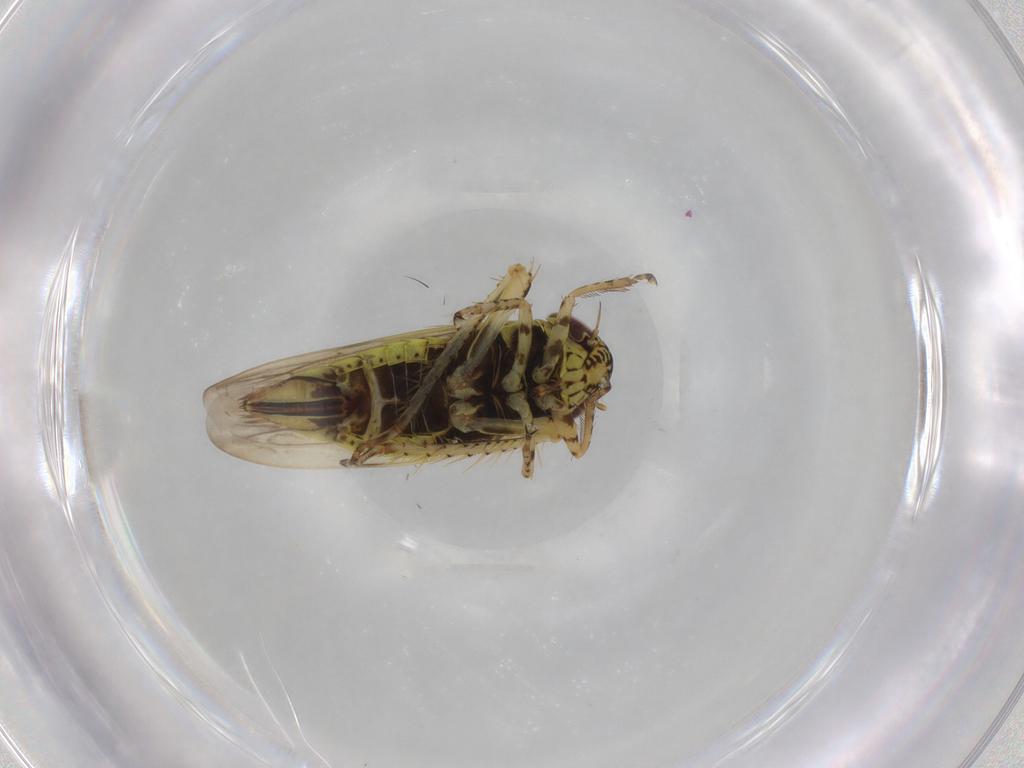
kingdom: Animalia
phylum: Arthropoda
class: Insecta
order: Hemiptera
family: Cicadellidae
